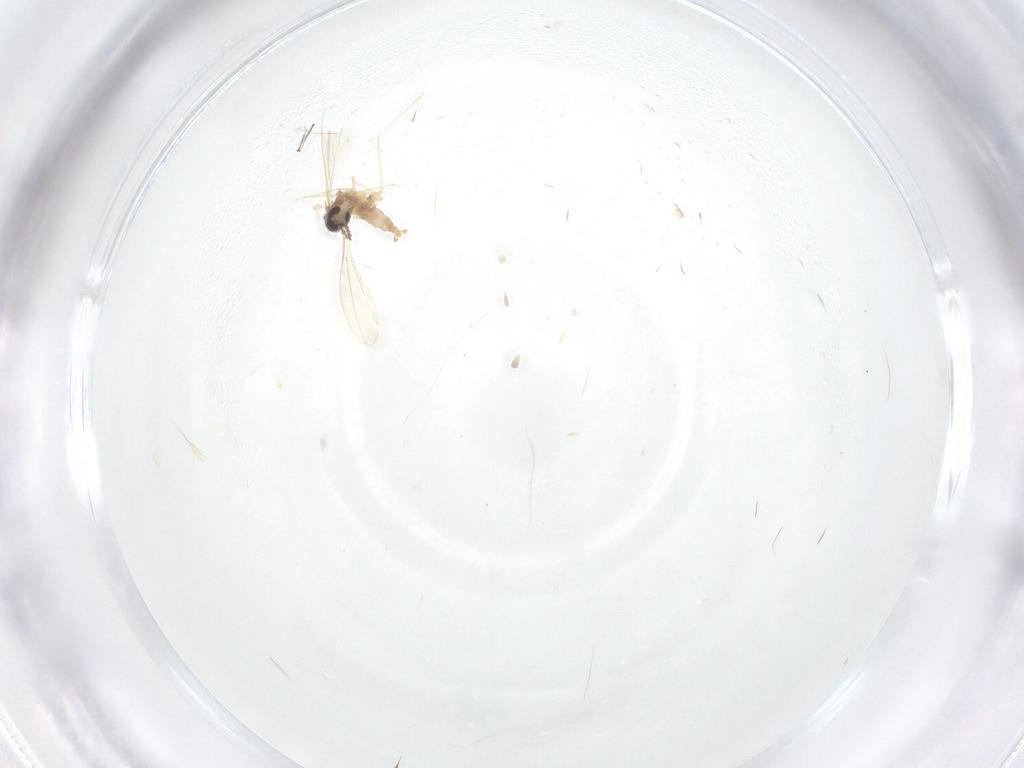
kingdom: Animalia
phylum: Arthropoda
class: Insecta
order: Diptera
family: Cecidomyiidae
